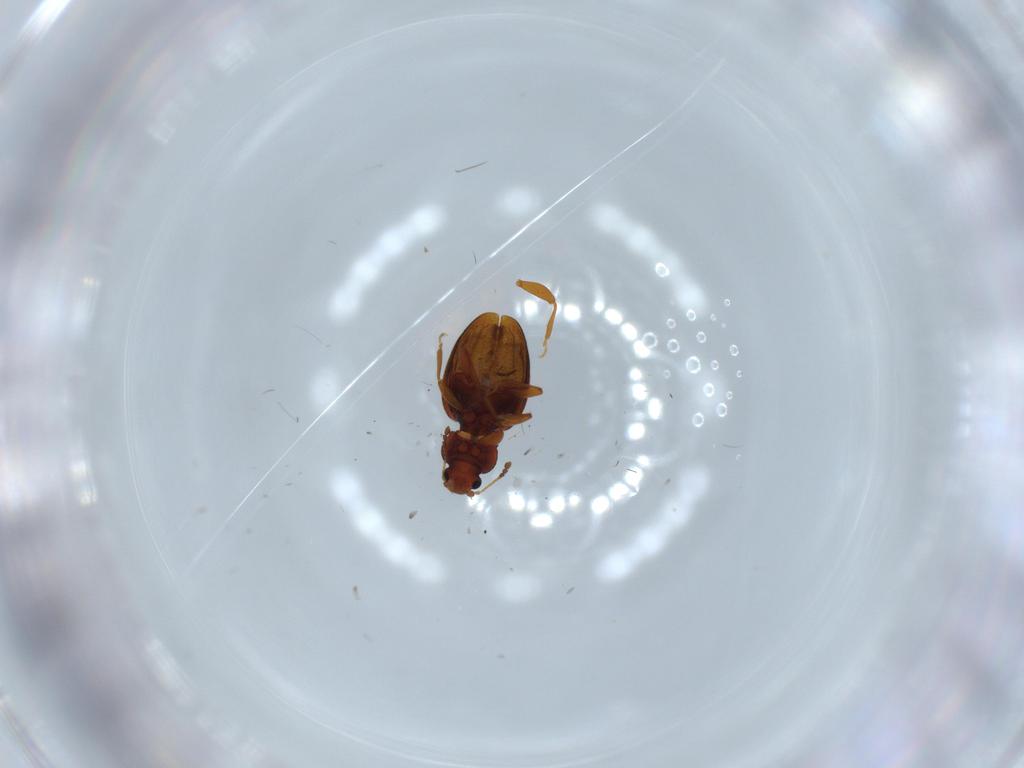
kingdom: Animalia
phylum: Arthropoda
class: Insecta
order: Coleoptera
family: Latridiidae
